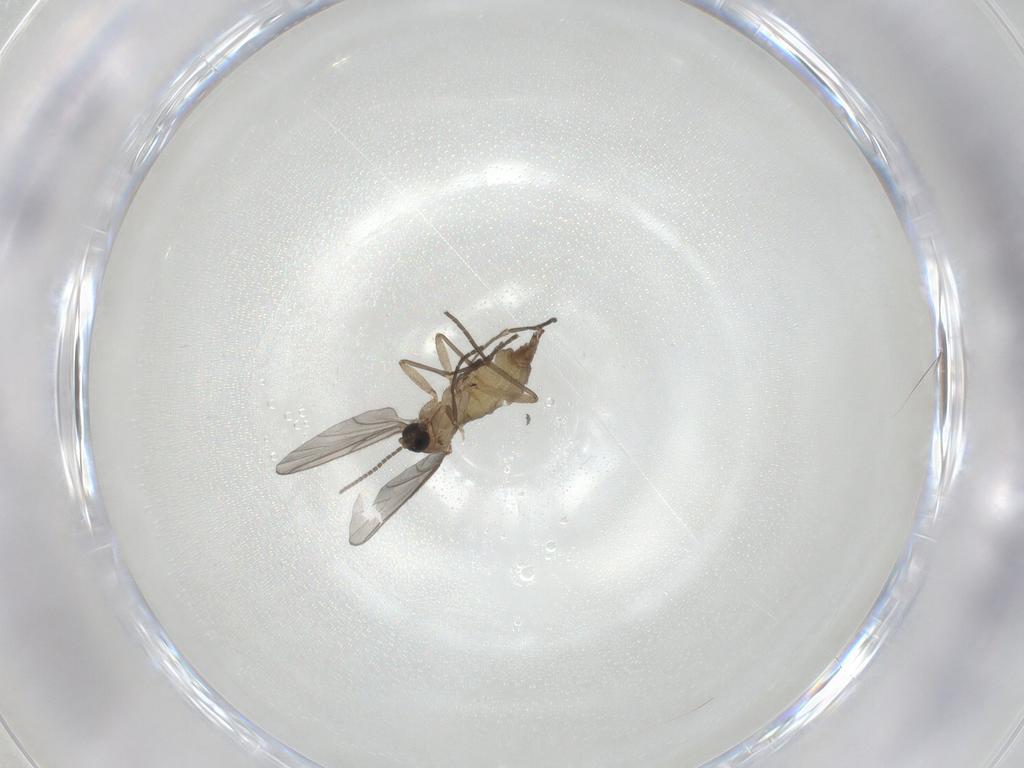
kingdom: Animalia
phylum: Arthropoda
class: Insecta
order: Diptera
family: Sciaridae
